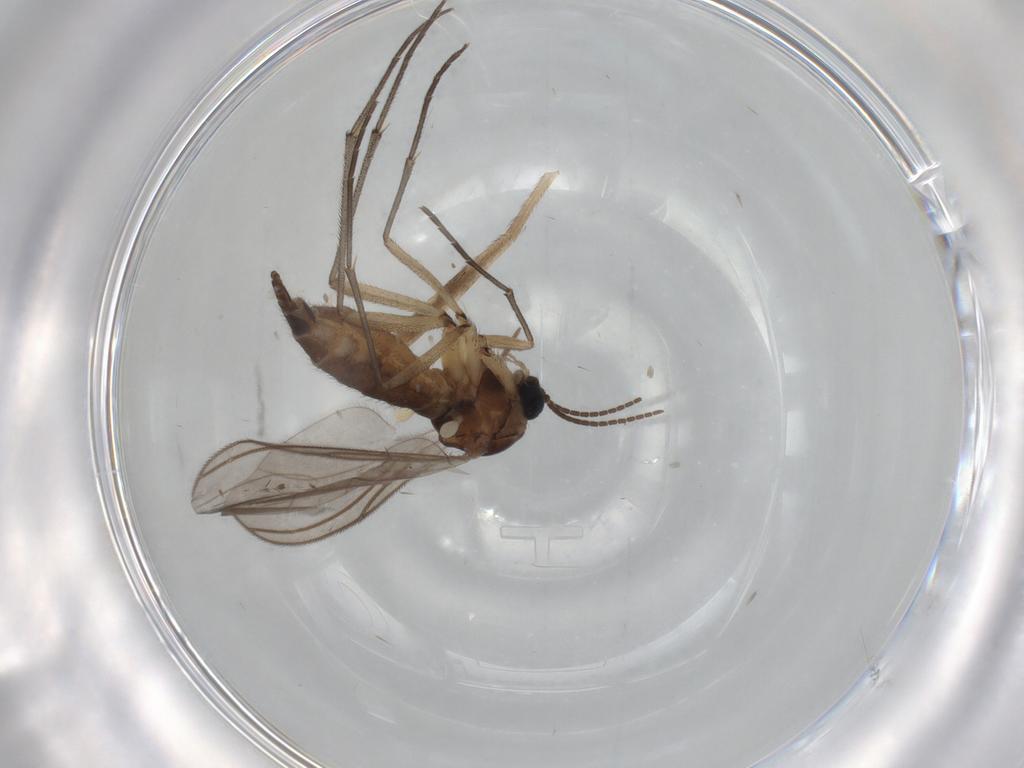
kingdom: Animalia
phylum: Arthropoda
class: Insecta
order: Diptera
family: Limoniidae
